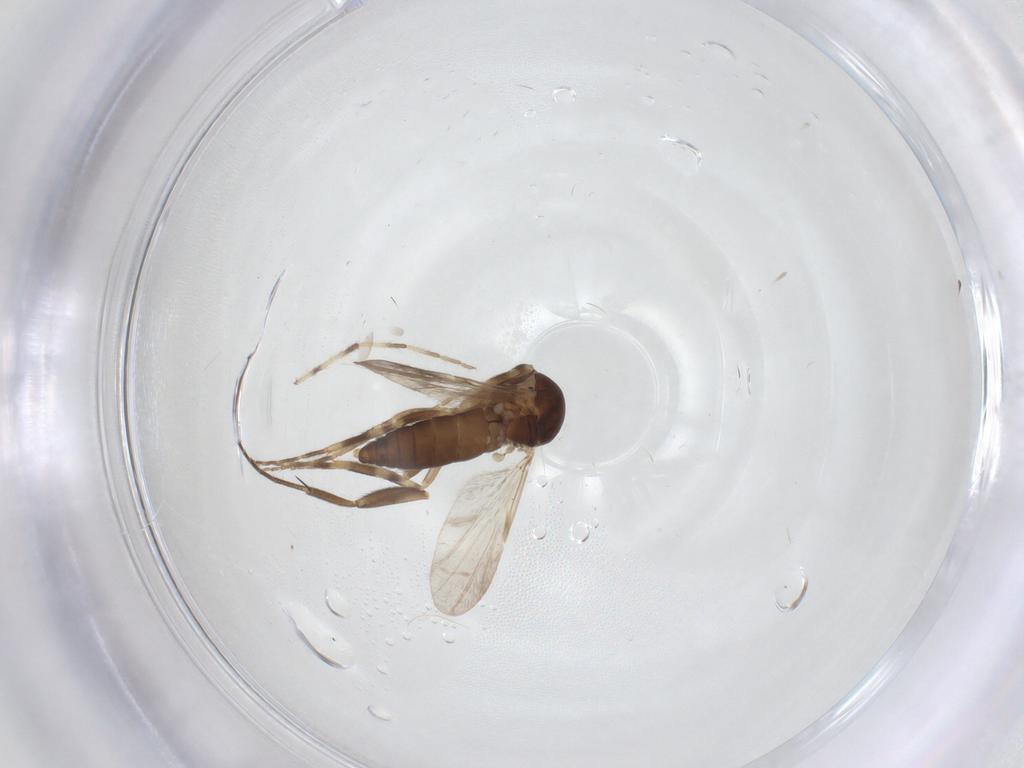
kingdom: Animalia
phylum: Arthropoda
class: Insecta
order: Diptera
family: Ceratopogonidae
